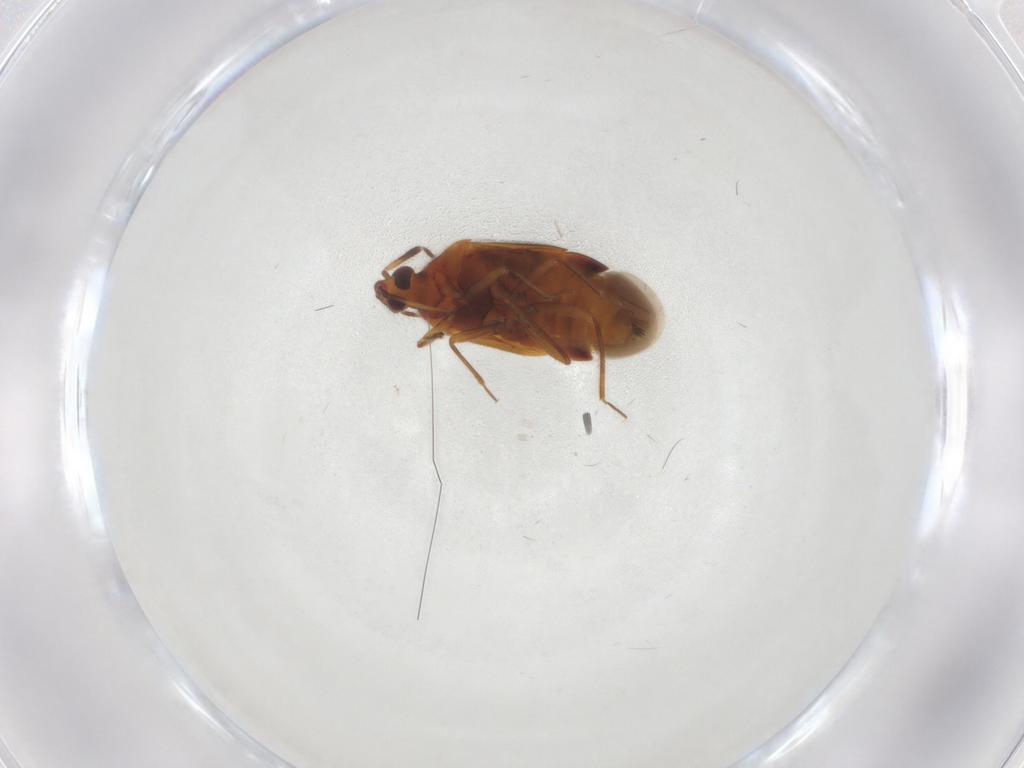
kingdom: Animalia
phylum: Arthropoda
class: Insecta
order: Hemiptera
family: Anthocoridae
